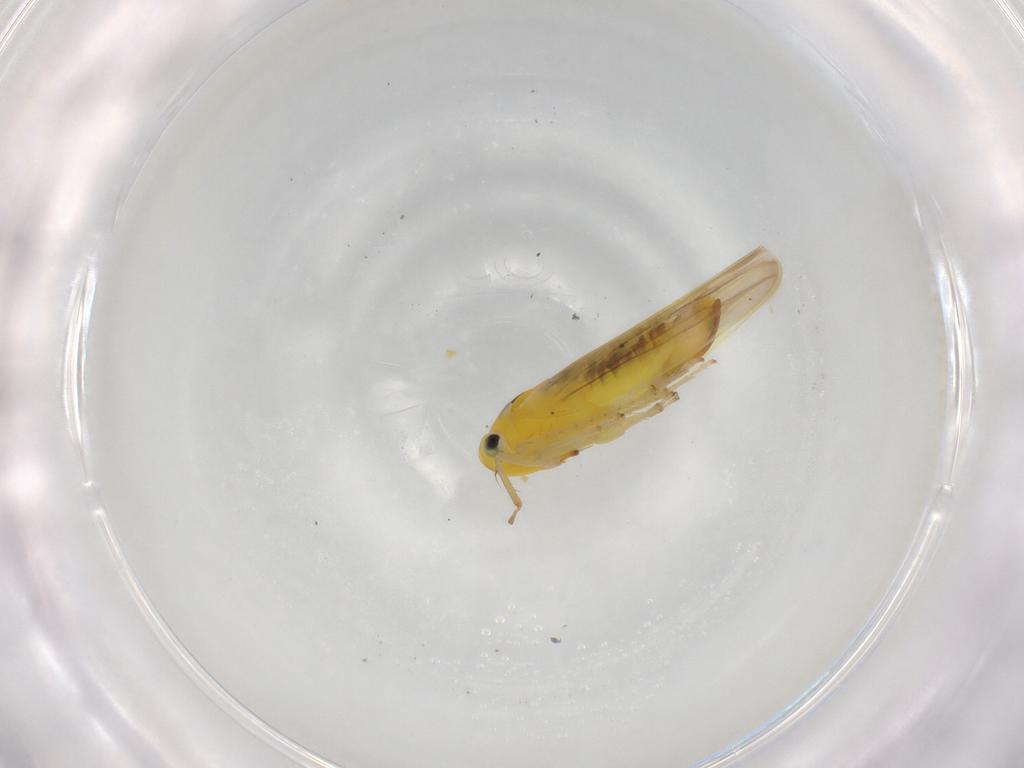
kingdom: Animalia
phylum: Arthropoda
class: Insecta
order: Hemiptera
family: Cicadellidae
